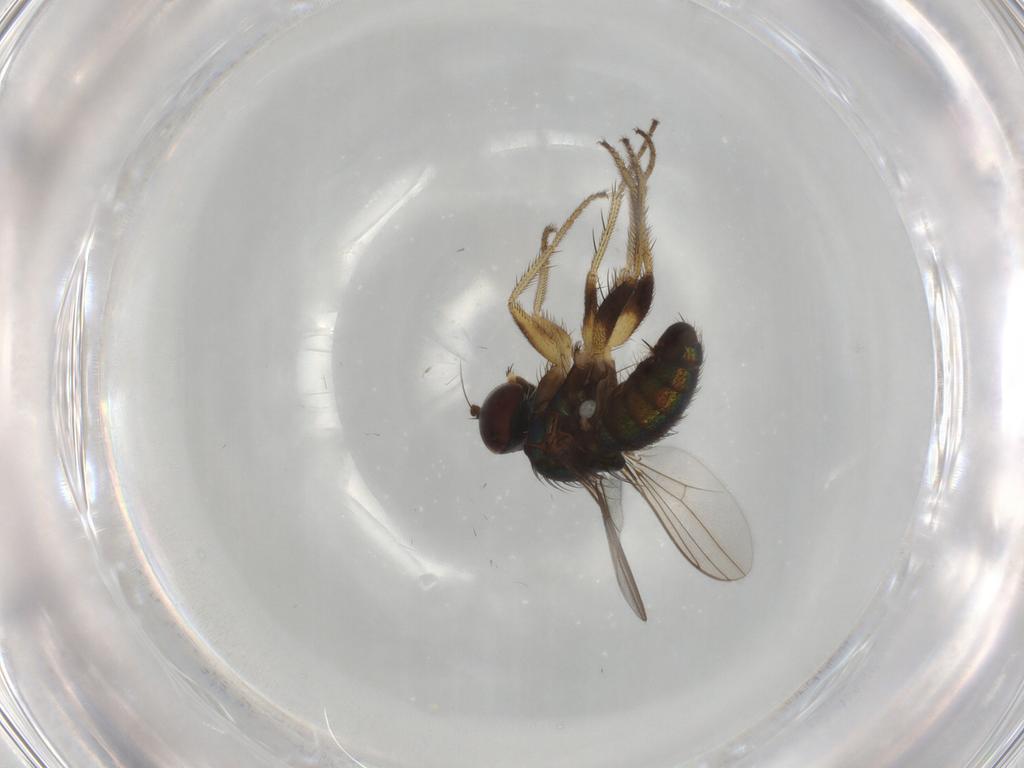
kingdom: Animalia
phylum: Arthropoda
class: Insecta
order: Diptera
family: Dolichopodidae
